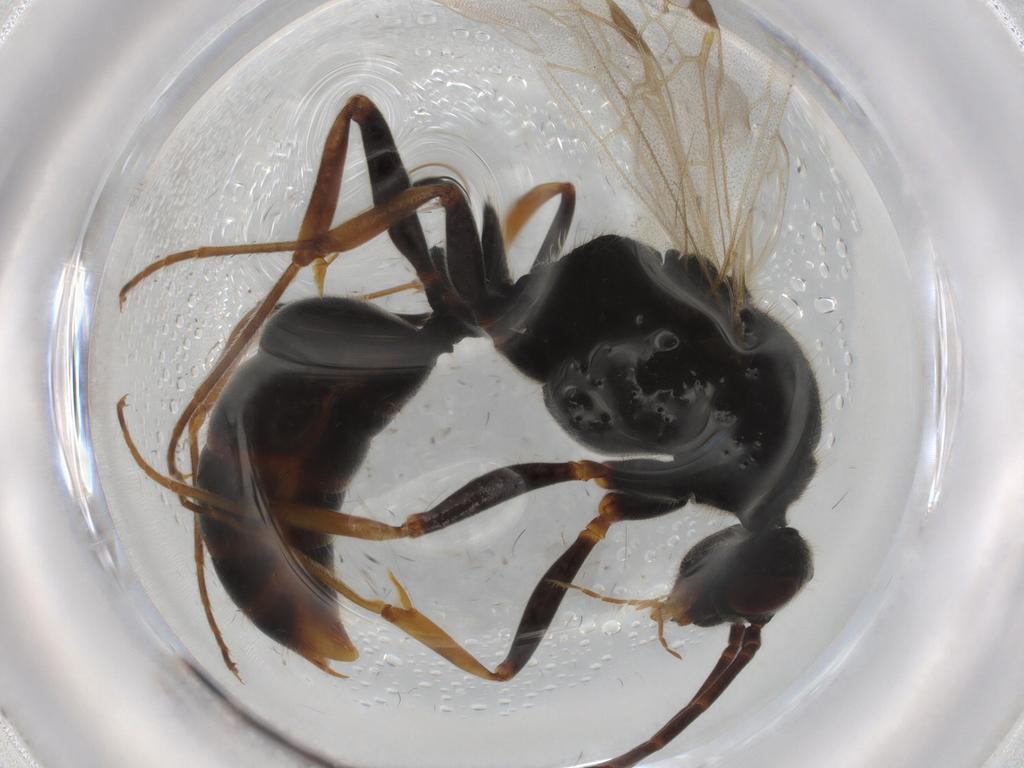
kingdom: Animalia
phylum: Arthropoda
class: Insecta
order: Hymenoptera
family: Formicidae
